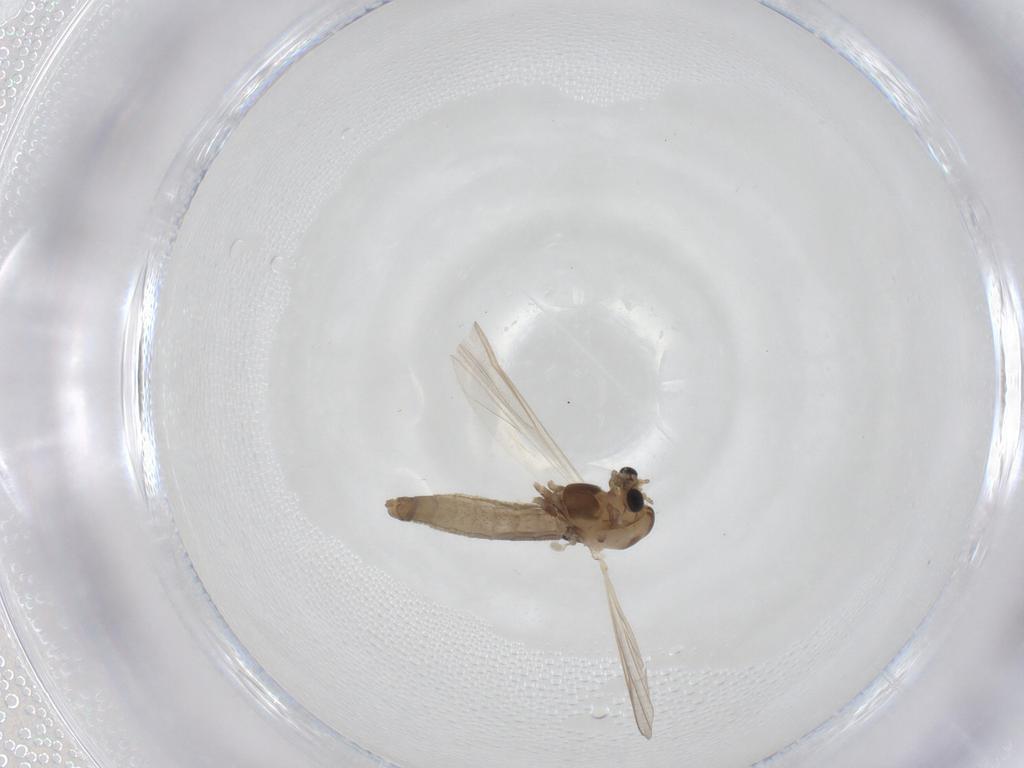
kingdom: Animalia
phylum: Arthropoda
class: Insecta
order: Diptera
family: Chironomidae
